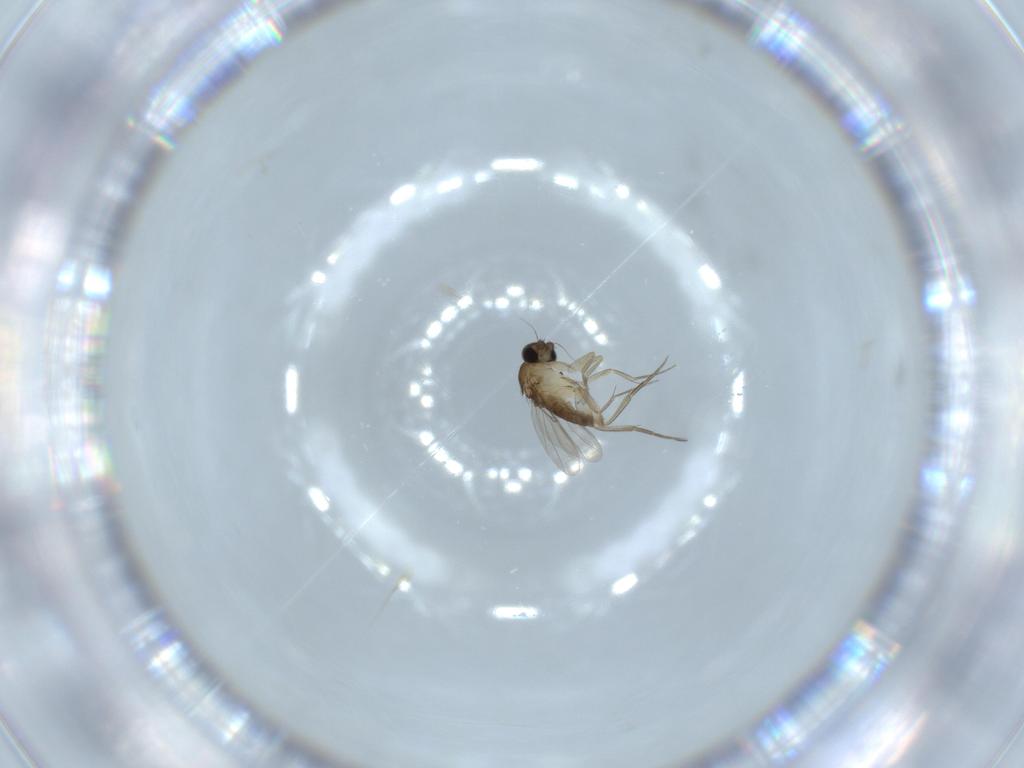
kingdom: Animalia
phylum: Arthropoda
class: Insecta
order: Diptera
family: Phoridae
